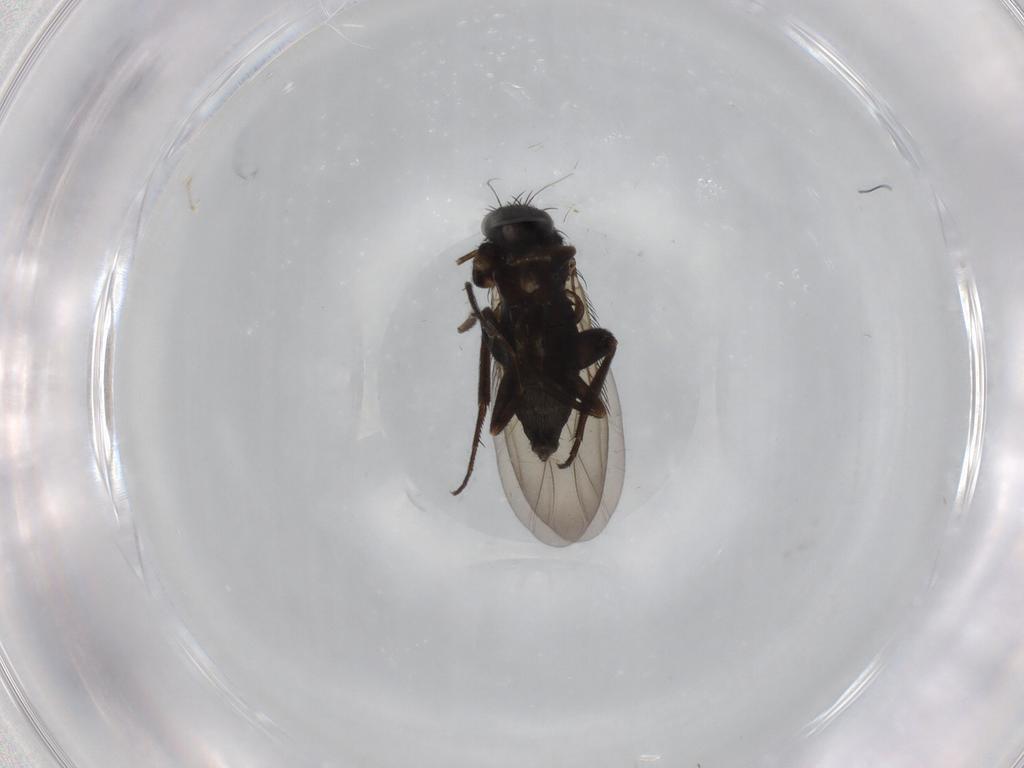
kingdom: Animalia
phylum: Arthropoda
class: Insecta
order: Diptera
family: Phoridae
